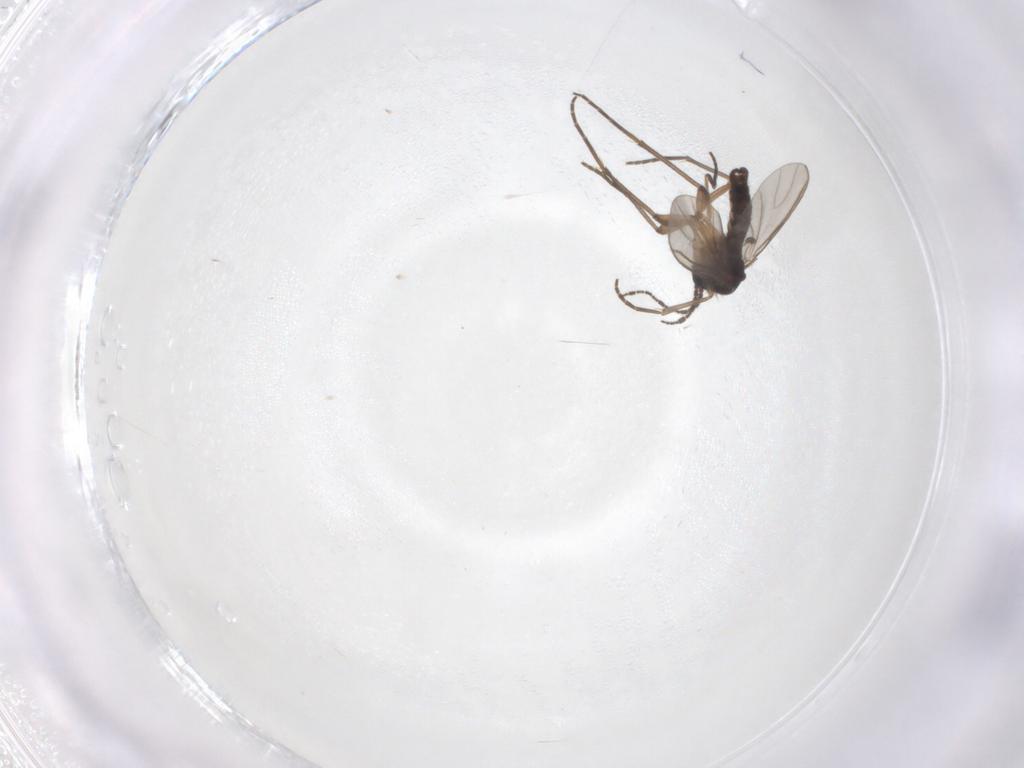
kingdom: Animalia
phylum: Arthropoda
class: Insecta
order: Diptera
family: Sciaridae
